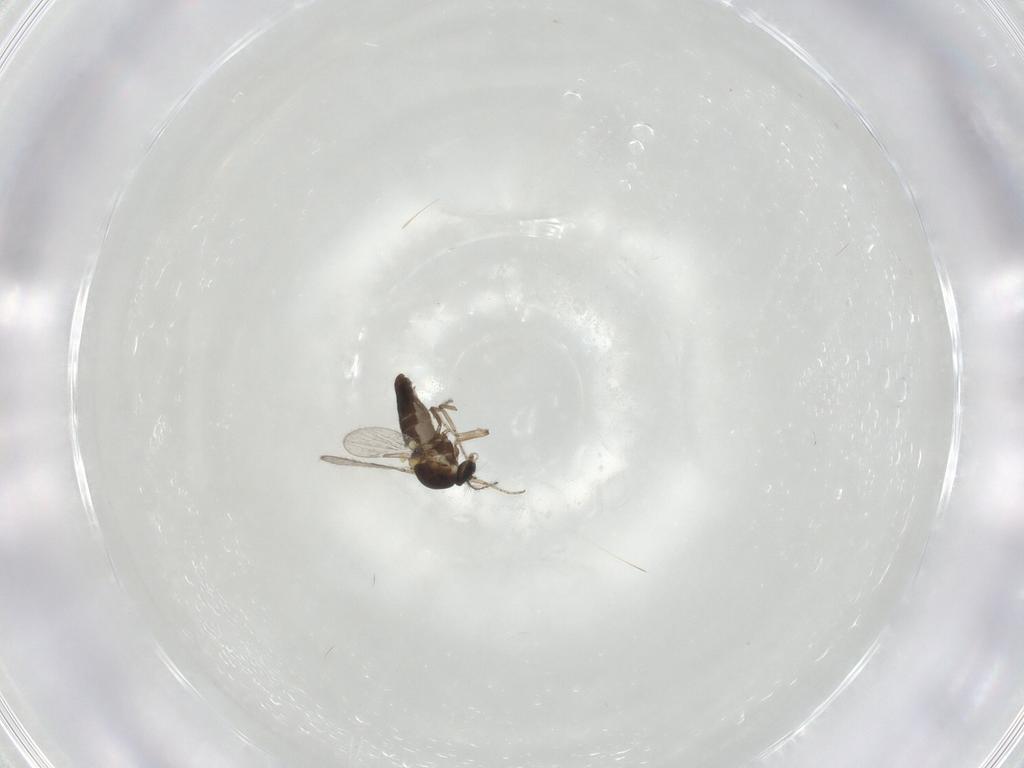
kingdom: Animalia
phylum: Arthropoda
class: Insecta
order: Diptera
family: Ceratopogonidae
